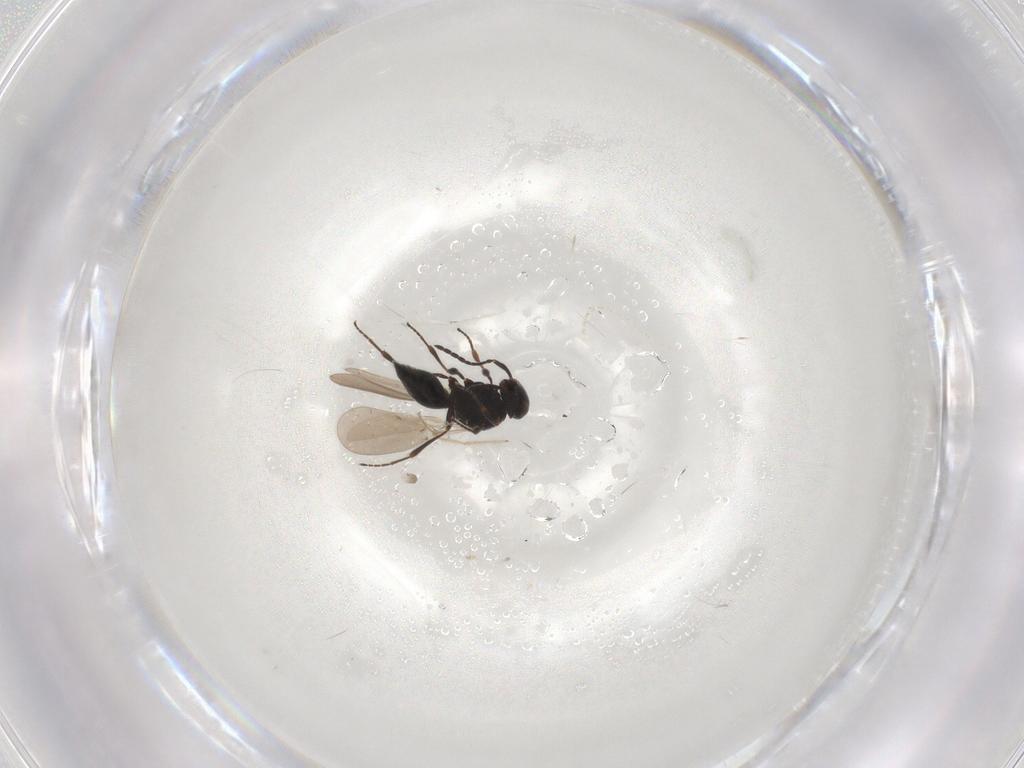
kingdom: Animalia
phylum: Arthropoda
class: Insecta
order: Hymenoptera
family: Platygastridae
